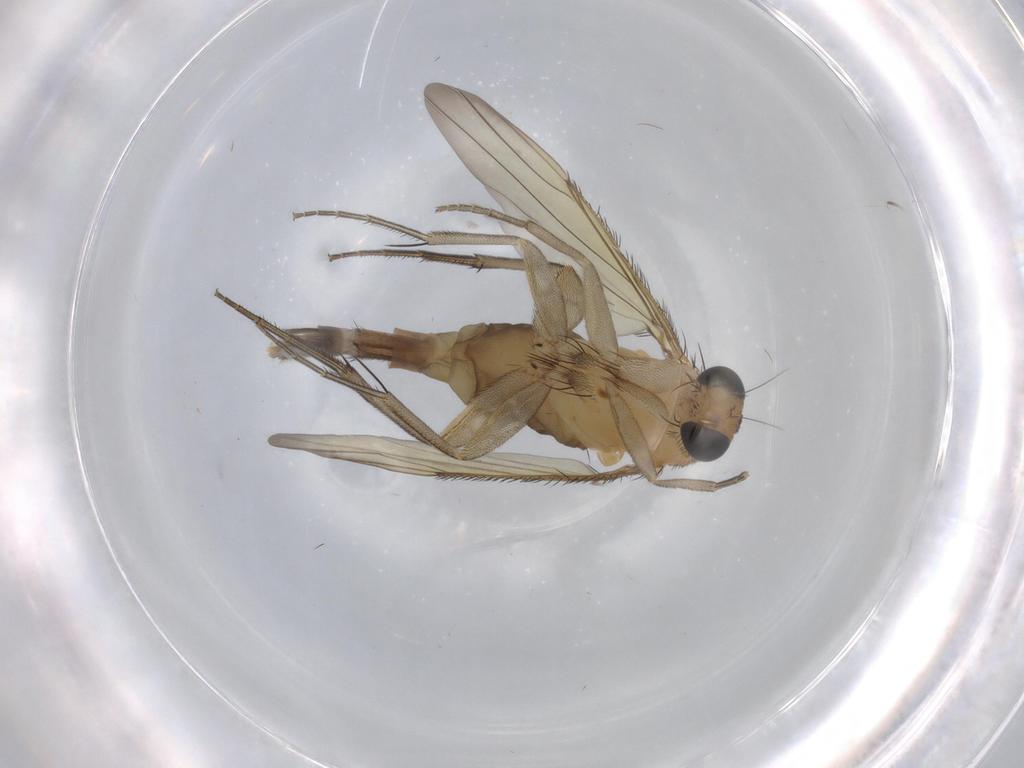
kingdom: Animalia
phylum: Arthropoda
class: Insecta
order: Diptera
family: Phoridae
